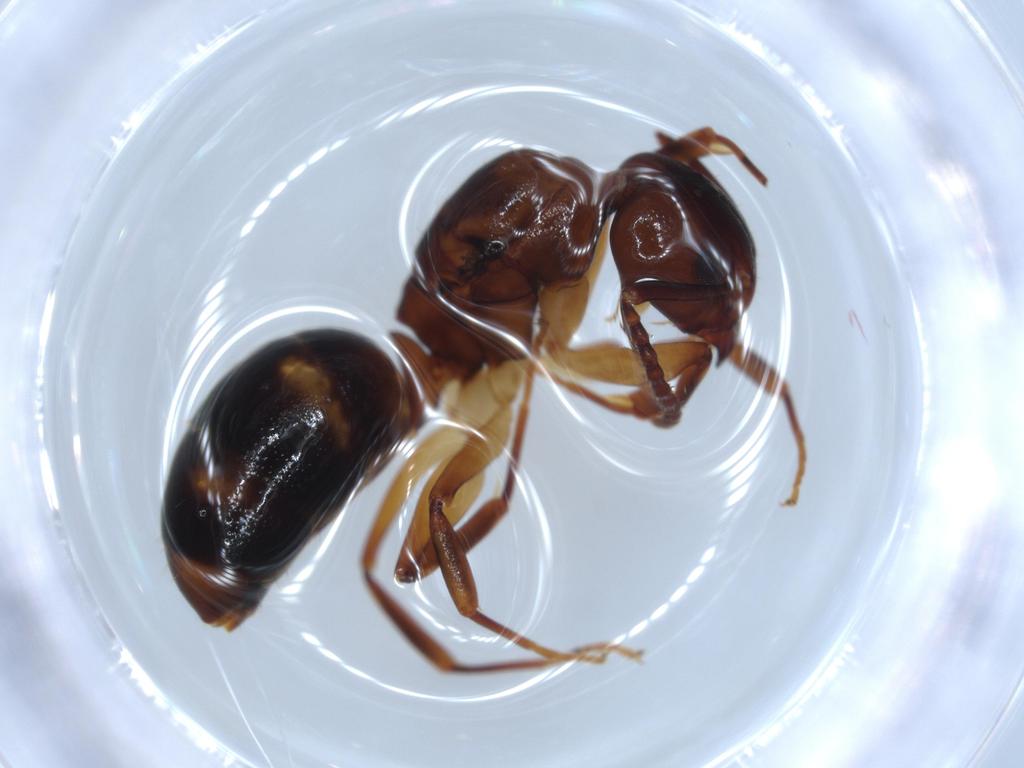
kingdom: Animalia
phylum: Arthropoda
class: Insecta
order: Hymenoptera
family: Formicidae
